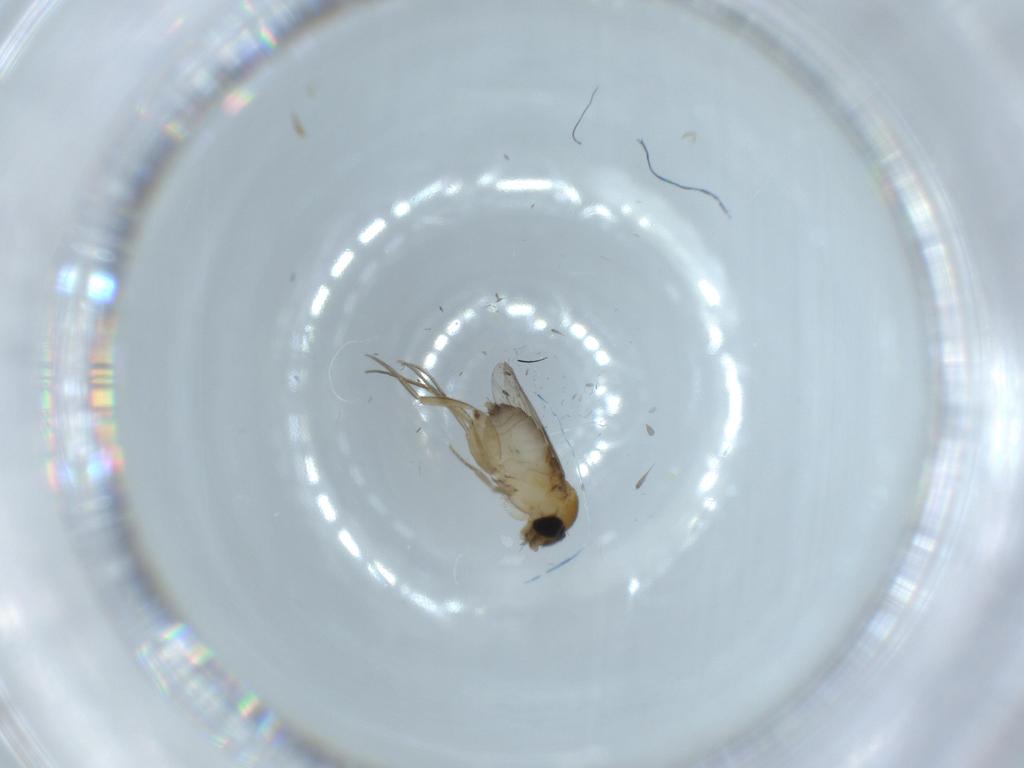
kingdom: Animalia
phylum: Arthropoda
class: Insecta
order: Diptera
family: Phoridae
